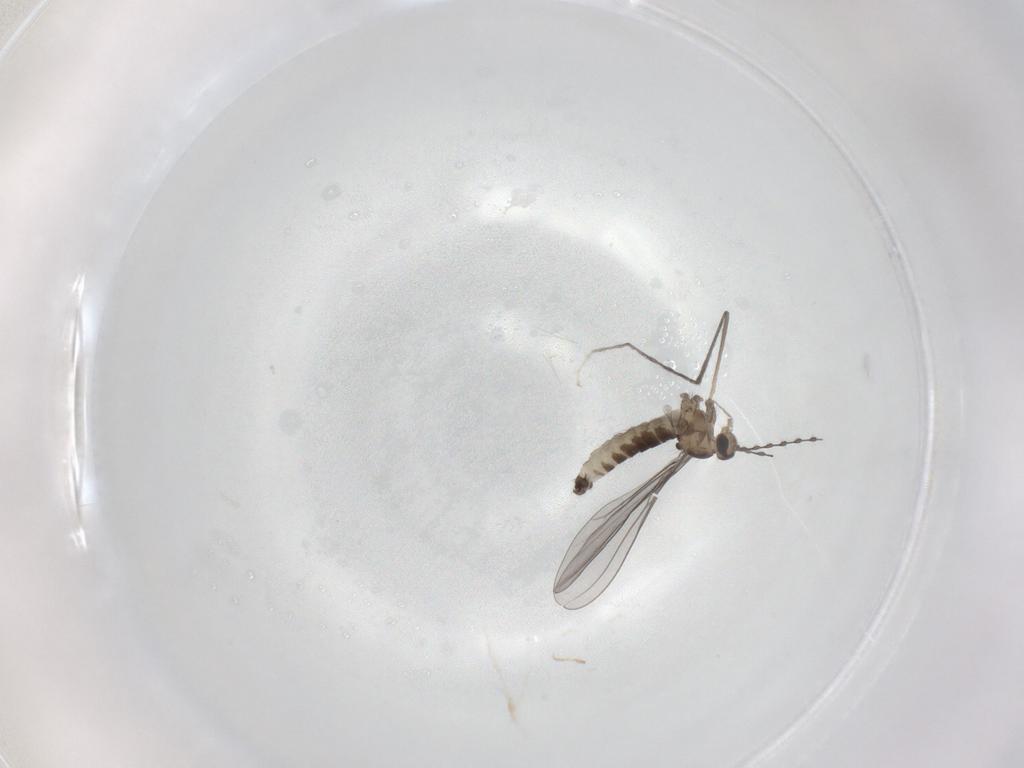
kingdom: Animalia
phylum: Arthropoda
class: Insecta
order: Diptera
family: Cecidomyiidae
